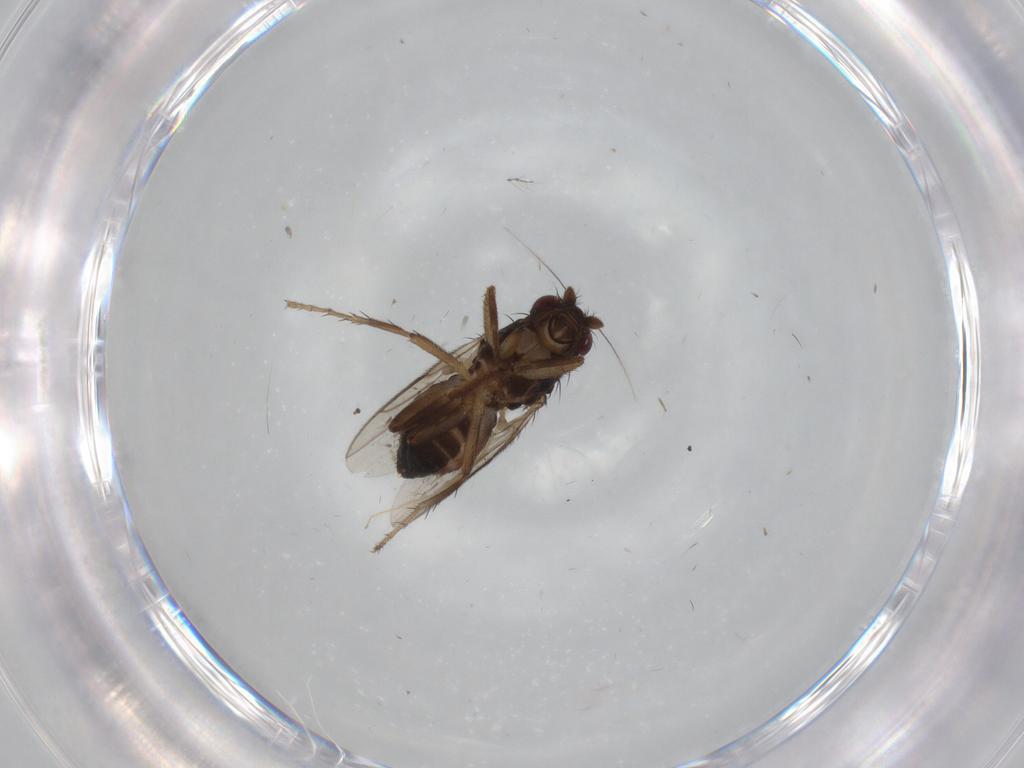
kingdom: Animalia
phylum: Arthropoda
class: Insecta
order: Diptera
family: Sphaeroceridae
